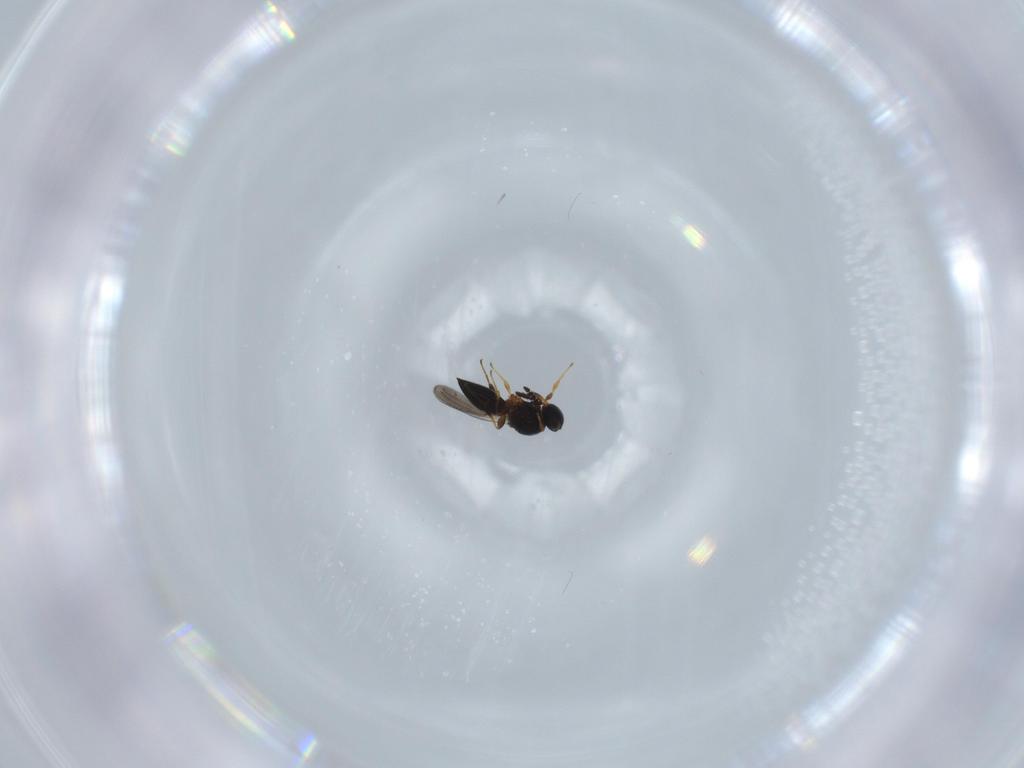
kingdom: Animalia
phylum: Arthropoda
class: Insecta
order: Hymenoptera
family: Platygastridae
